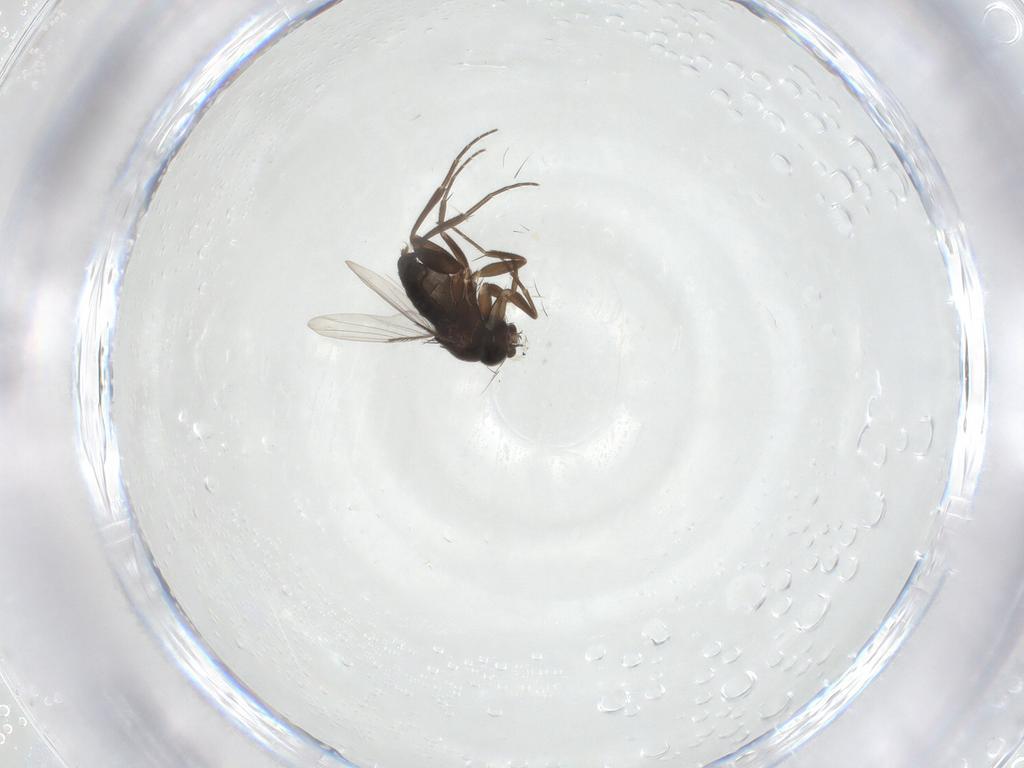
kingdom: Animalia
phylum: Arthropoda
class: Insecta
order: Diptera
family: Phoridae
